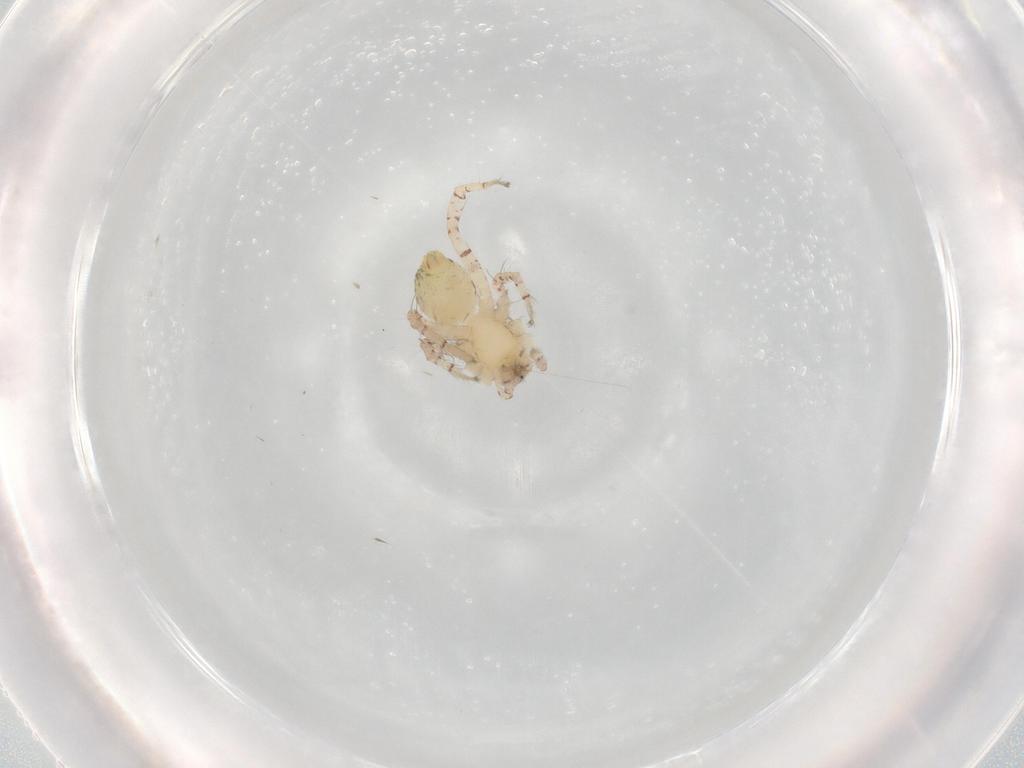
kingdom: Animalia
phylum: Arthropoda
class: Arachnida
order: Araneae
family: Anyphaenidae
